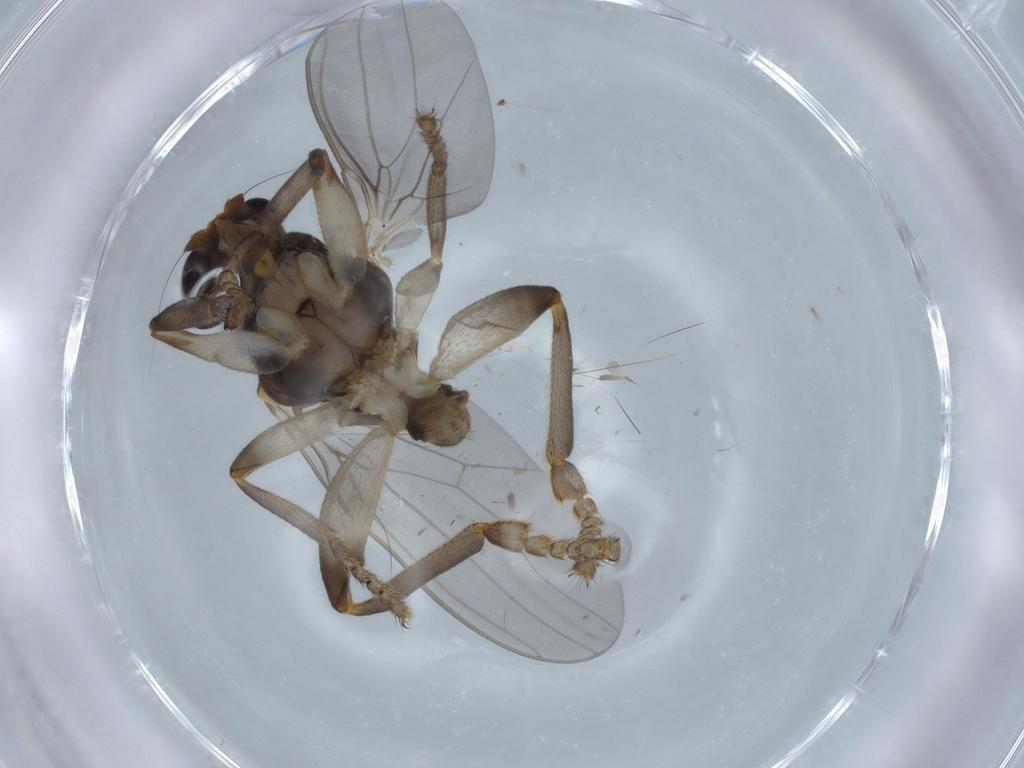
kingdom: Animalia
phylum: Arthropoda
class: Insecta
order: Diptera
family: Sphaeroceridae
